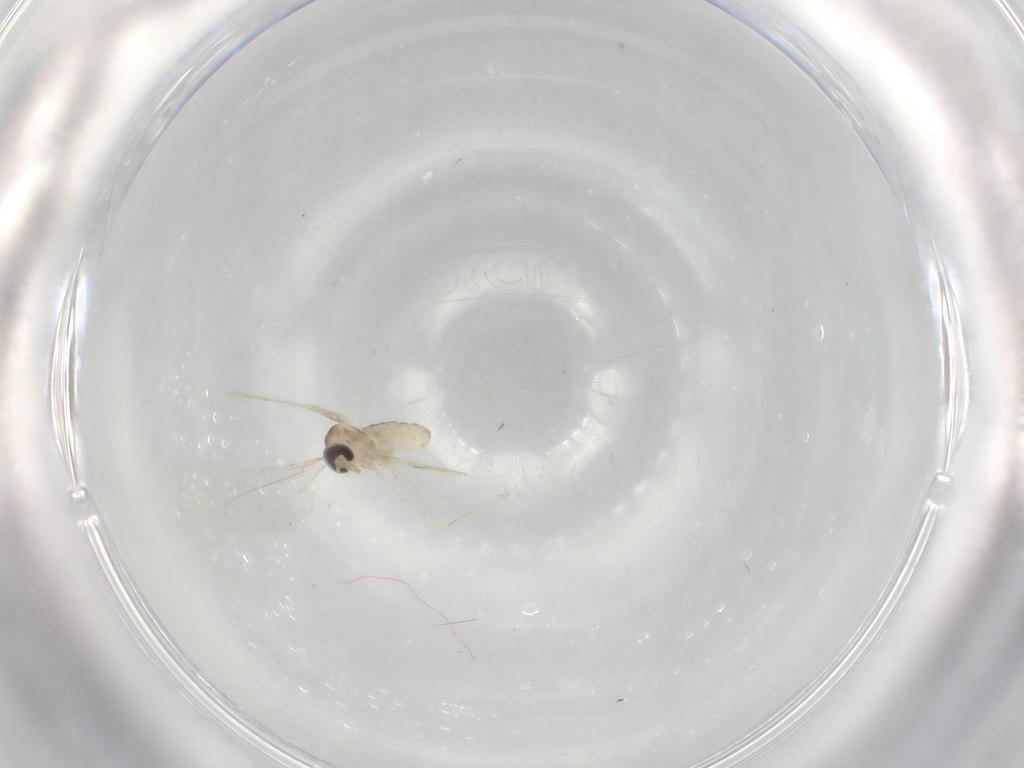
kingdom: Animalia
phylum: Arthropoda
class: Insecta
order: Diptera
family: Cecidomyiidae
